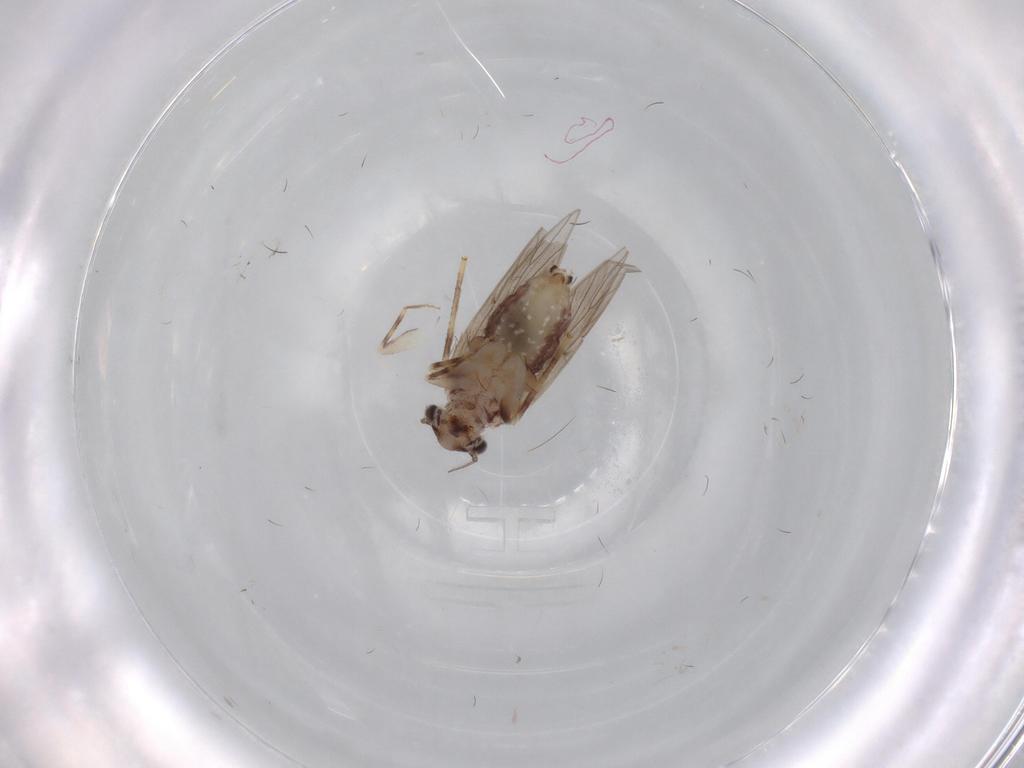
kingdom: Animalia
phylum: Arthropoda
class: Insecta
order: Psocodea
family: Lepidopsocidae
